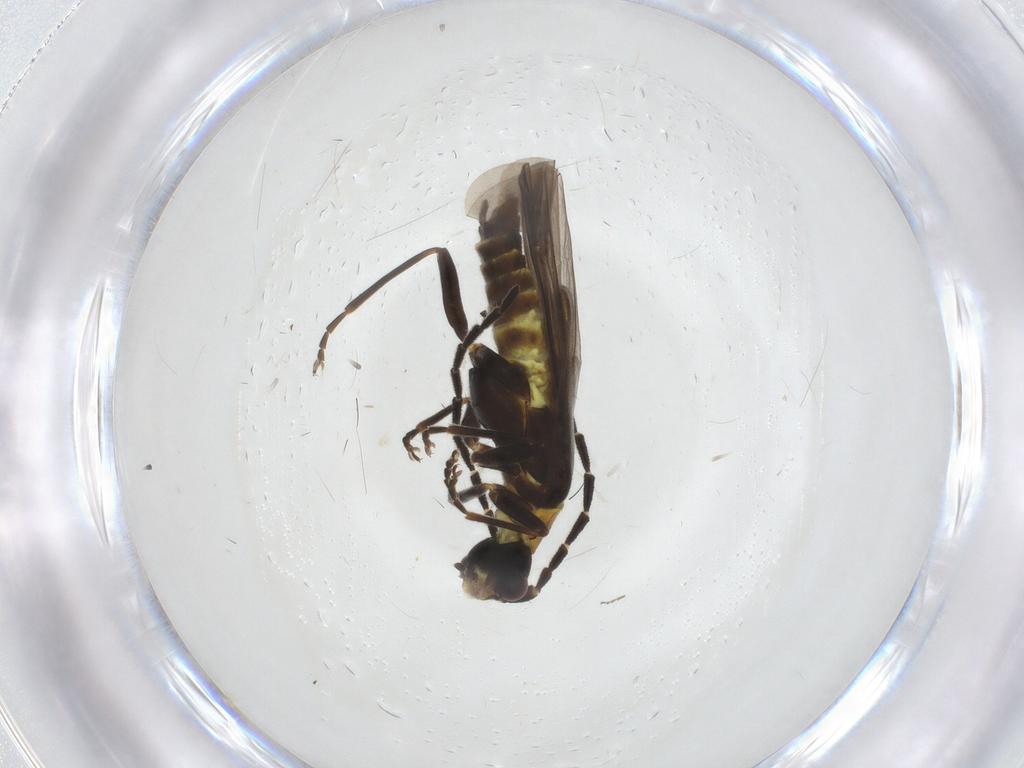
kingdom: Animalia
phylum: Arthropoda
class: Insecta
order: Coleoptera
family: Cantharidae
